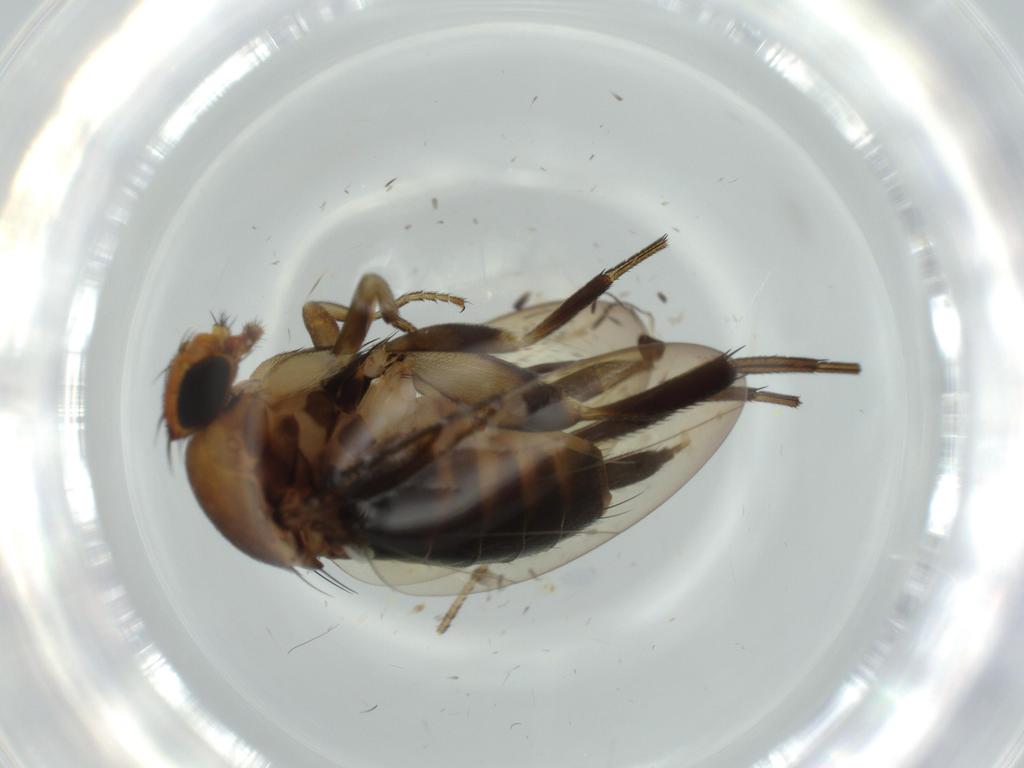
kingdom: Animalia
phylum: Arthropoda
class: Insecta
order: Diptera
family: Phoridae
